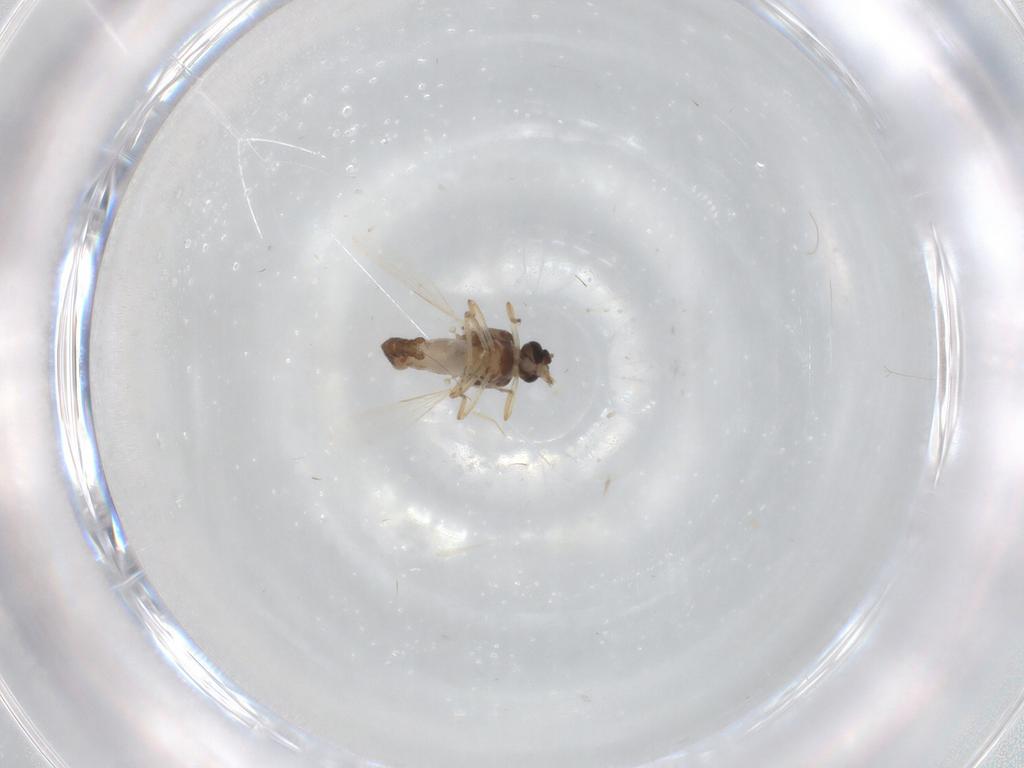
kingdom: Animalia
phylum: Arthropoda
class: Insecta
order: Diptera
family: Ceratopogonidae
